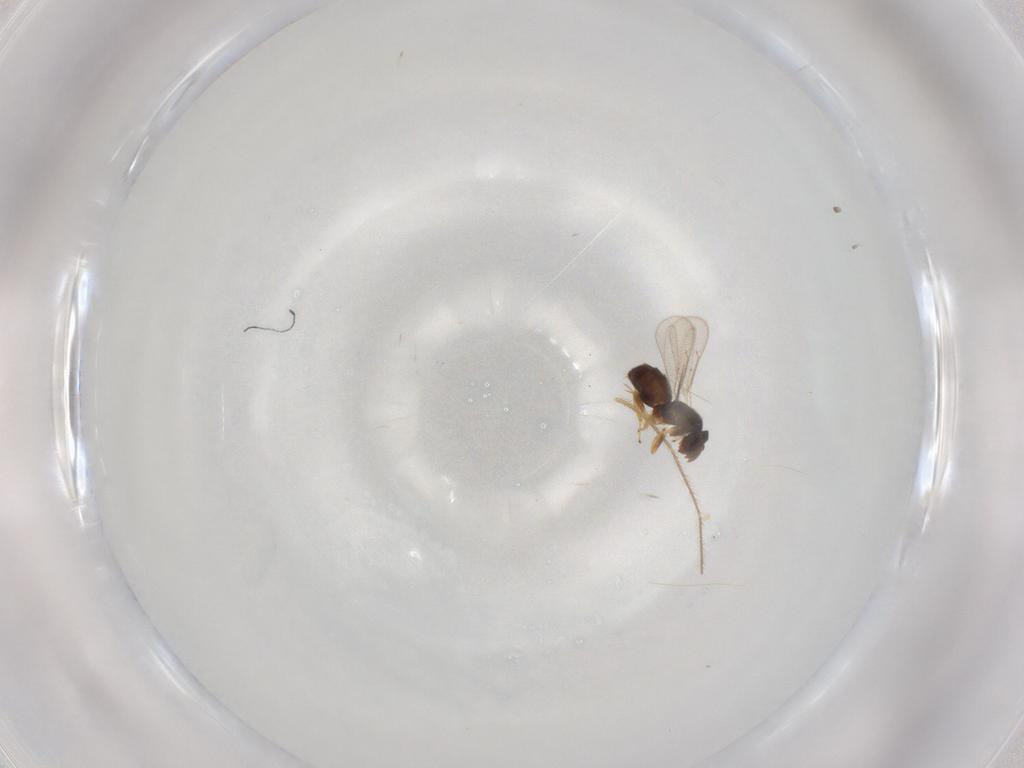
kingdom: Animalia
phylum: Arthropoda
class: Insecta
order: Hymenoptera
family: Eulophidae
